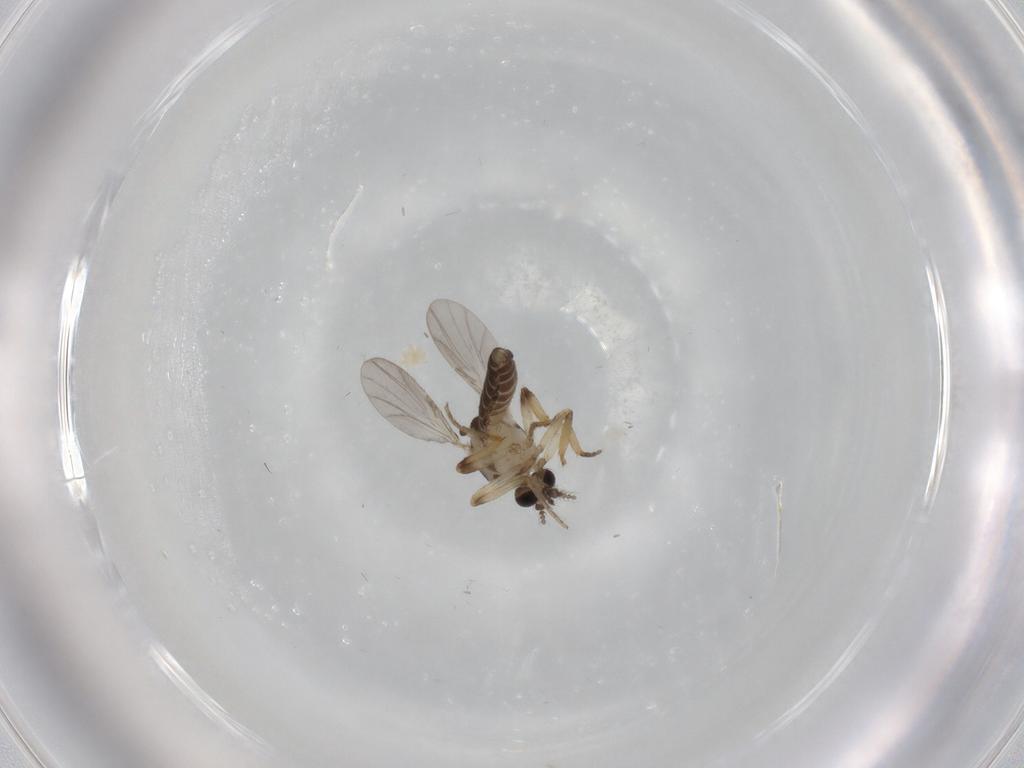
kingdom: Animalia
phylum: Arthropoda
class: Insecta
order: Diptera
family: Ceratopogonidae
